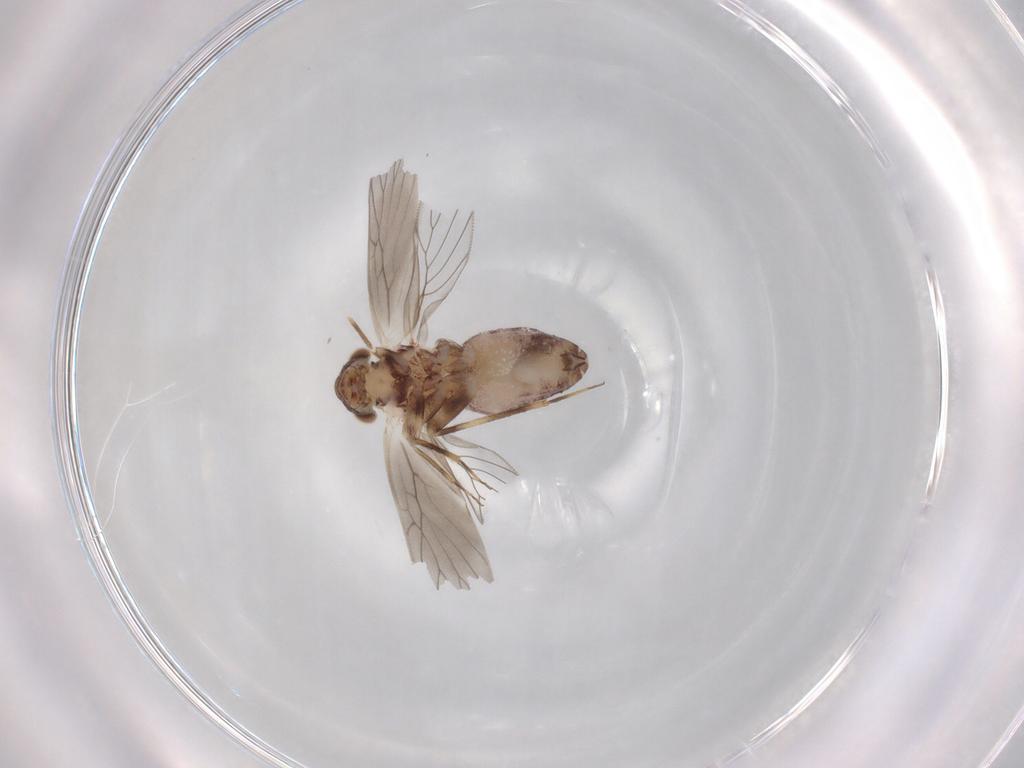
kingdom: Animalia
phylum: Arthropoda
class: Insecta
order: Psocodea
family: Lepidopsocidae
